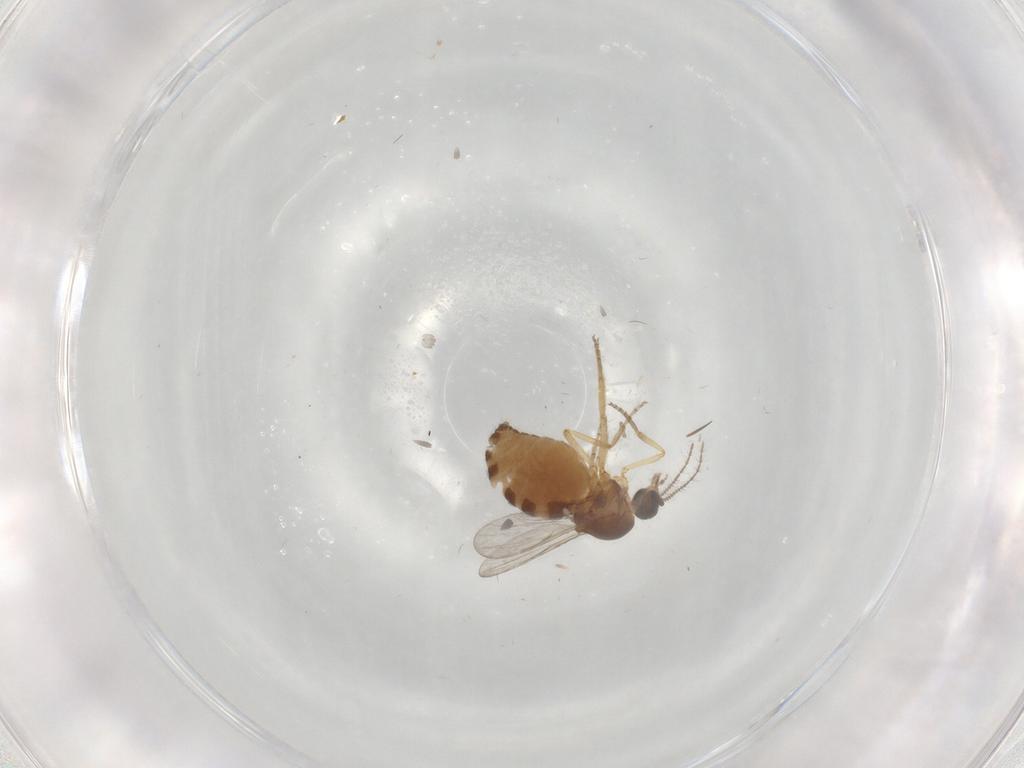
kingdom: Animalia
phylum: Arthropoda
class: Insecta
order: Diptera
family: Ceratopogonidae
